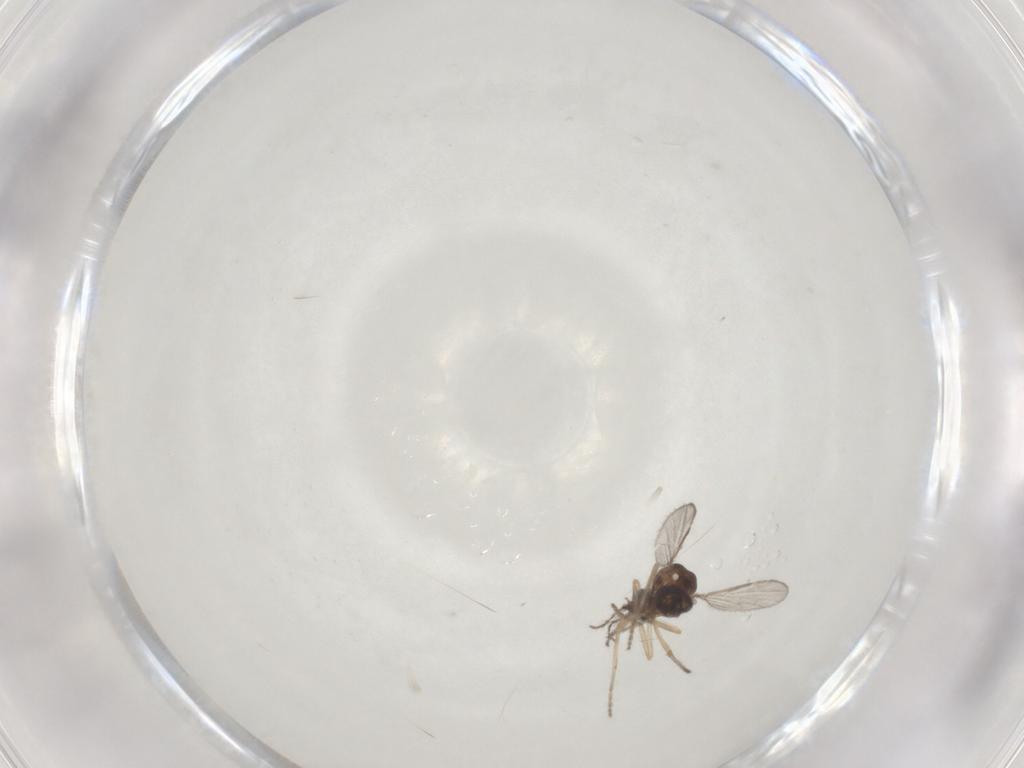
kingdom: Animalia
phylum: Arthropoda
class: Insecta
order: Diptera
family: Ceratopogonidae
